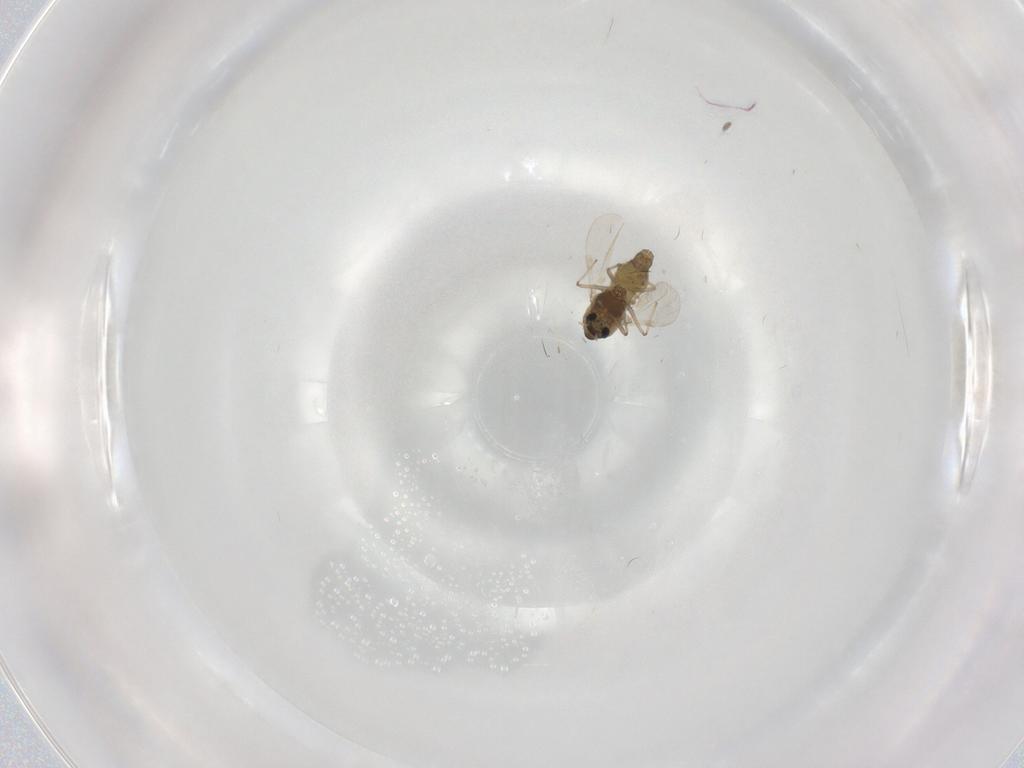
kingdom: Animalia
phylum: Arthropoda
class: Insecta
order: Diptera
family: Chironomidae
